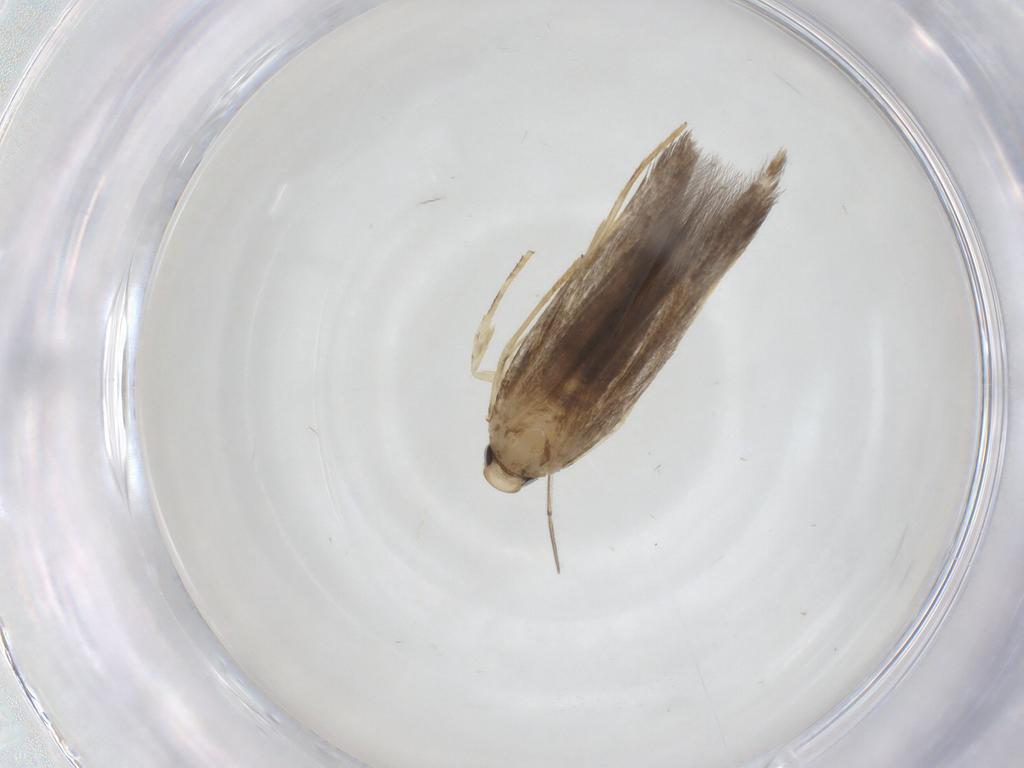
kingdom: Animalia
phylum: Arthropoda
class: Insecta
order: Lepidoptera
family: Cosmopterigidae
